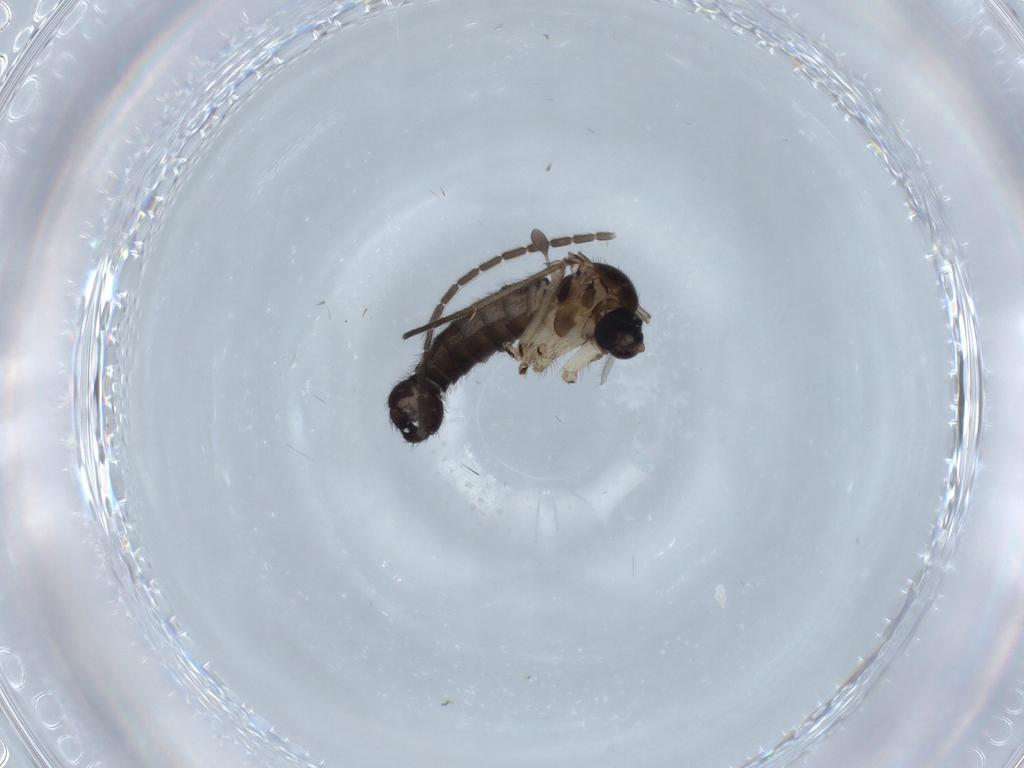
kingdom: Animalia
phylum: Arthropoda
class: Insecta
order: Diptera
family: Sciaridae
